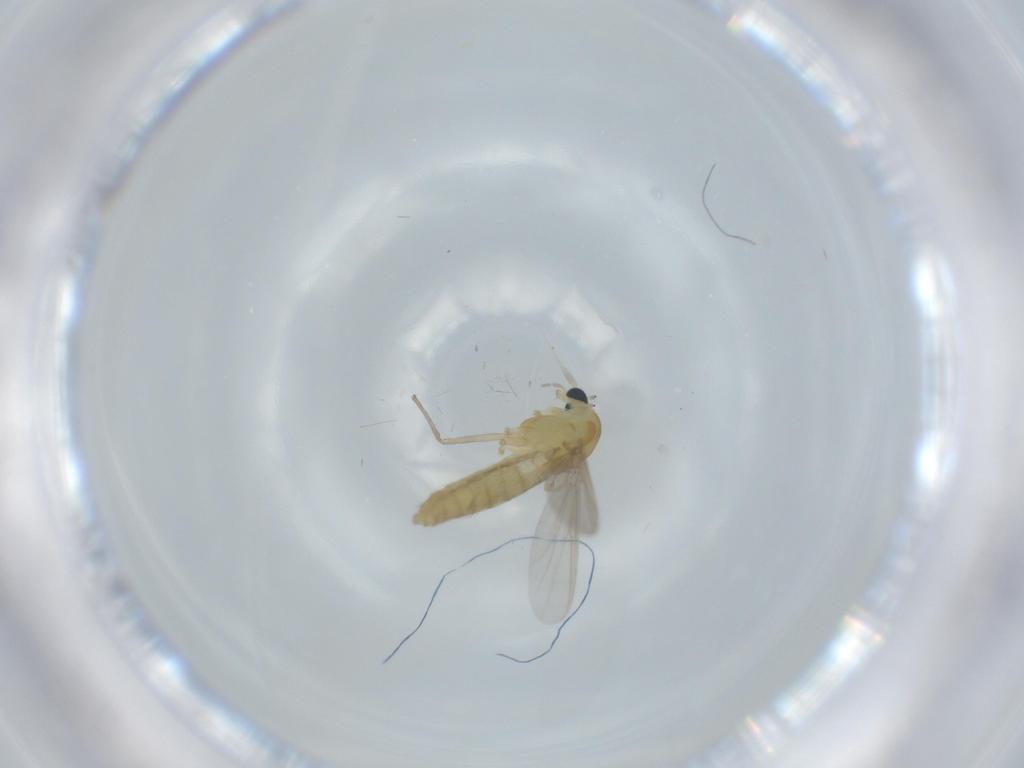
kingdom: Animalia
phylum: Arthropoda
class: Insecta
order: Diptera
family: Chironomidae
